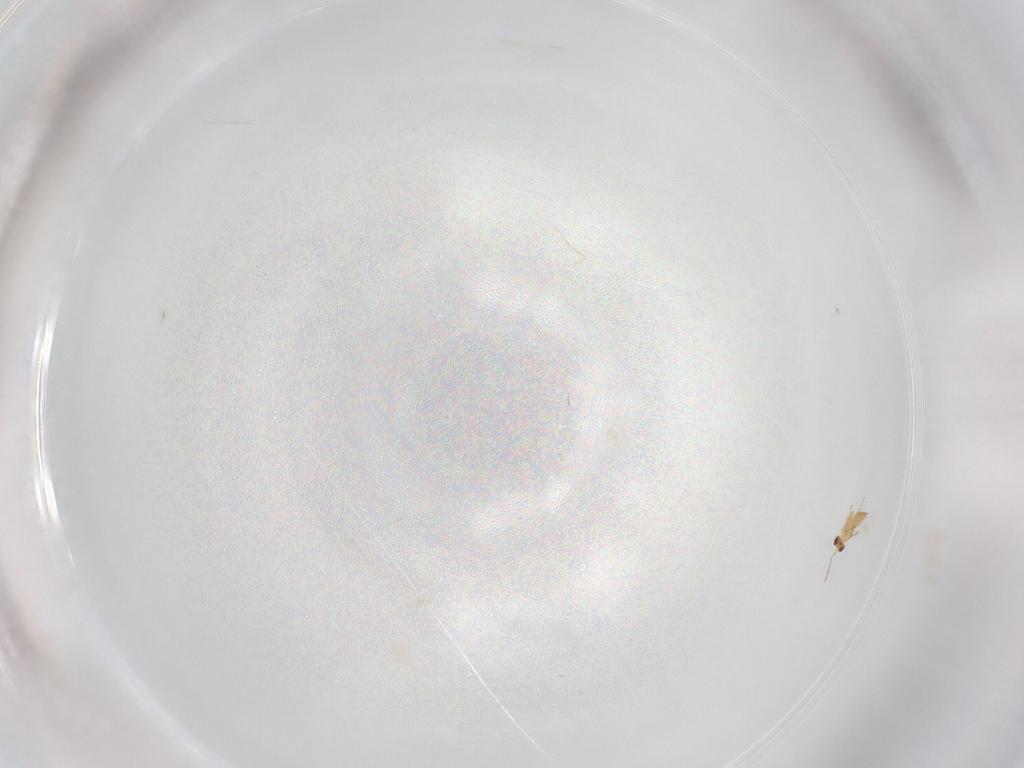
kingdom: Animalia
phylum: Arthropoda
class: Insecta
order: Hymenoptera
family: Mymaridae
